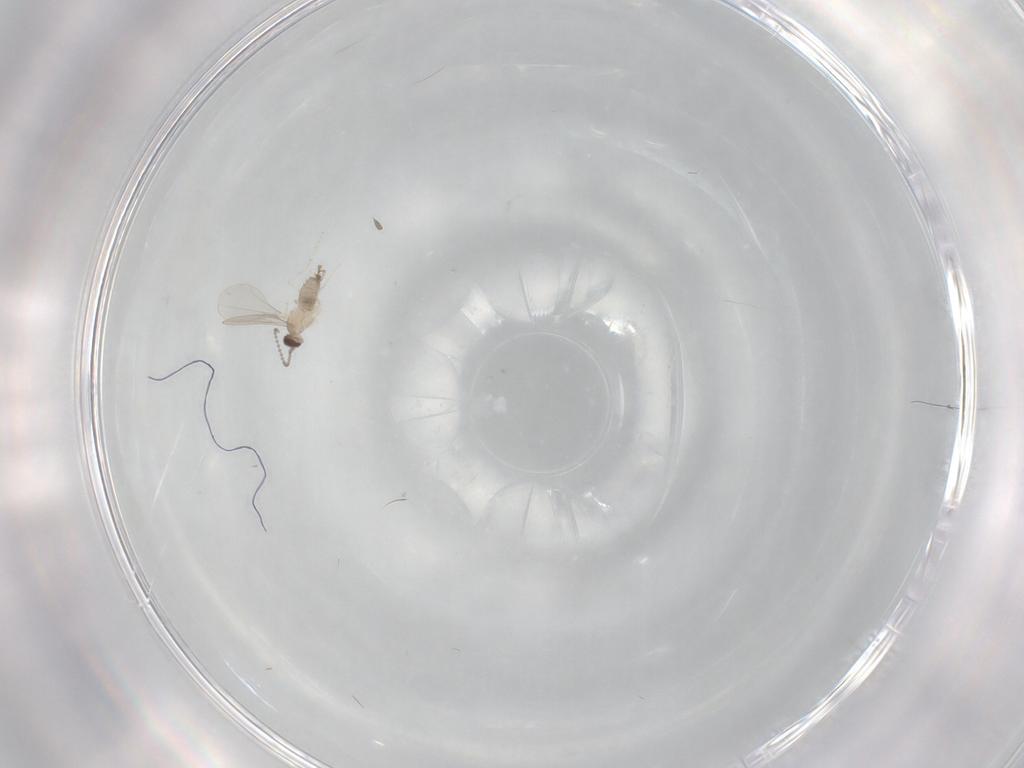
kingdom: Animalia
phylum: Arthropoda
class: Insecta
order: Diptera
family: Cecidomyiidae
